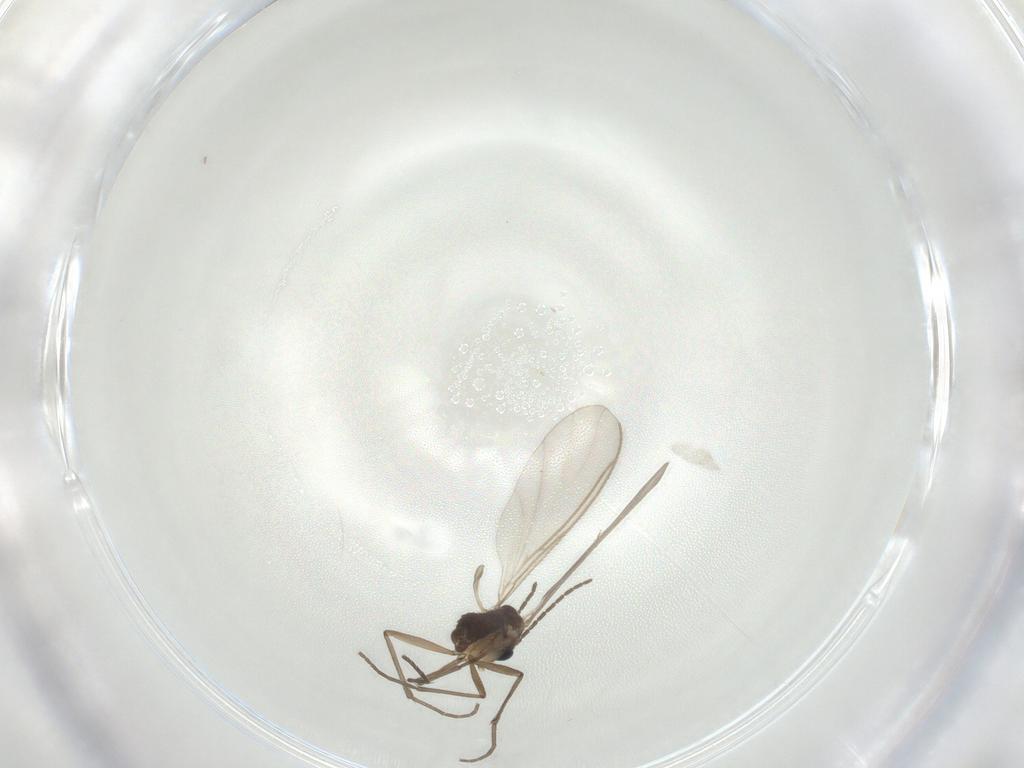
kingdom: Animalia
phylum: Arthropoda
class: Insecta
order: Diptera
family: Sciaridae
